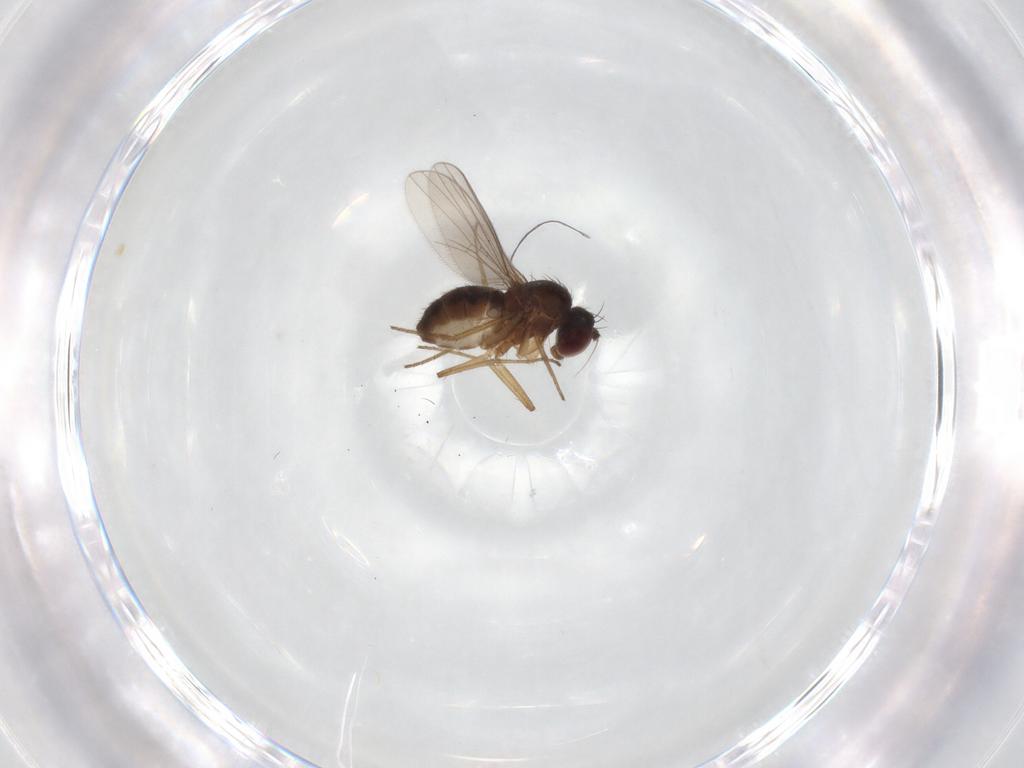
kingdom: Animalia
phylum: Arthropoda
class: Insecta
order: Diptera
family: Dolichopodidae
